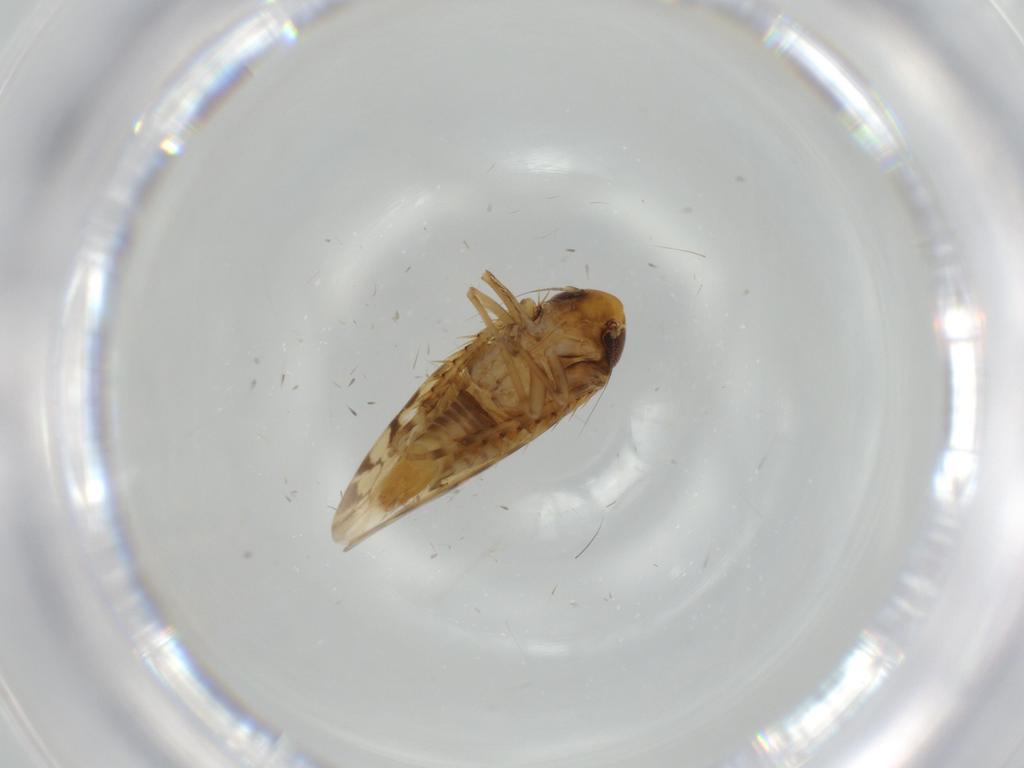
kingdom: Animalia
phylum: Arthropoda
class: Insecta
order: Hemiptera
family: Cicadellidae
